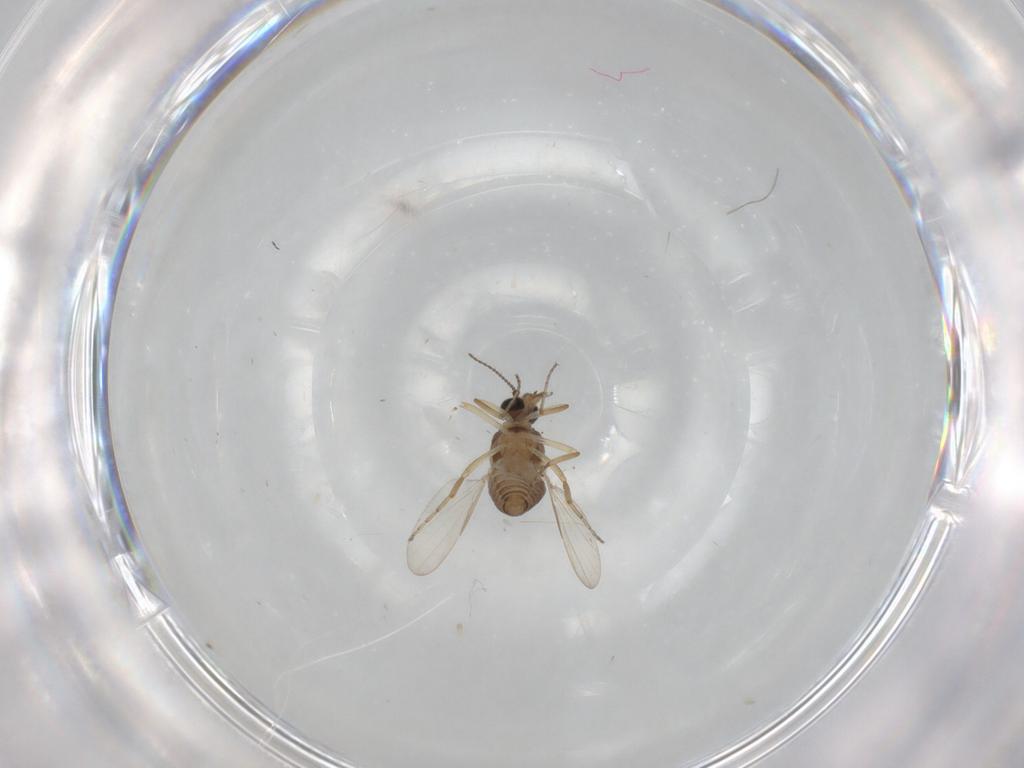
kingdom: Animalia
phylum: Arthropoda
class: Insecta
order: Diptera
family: Ceratopogonidae
